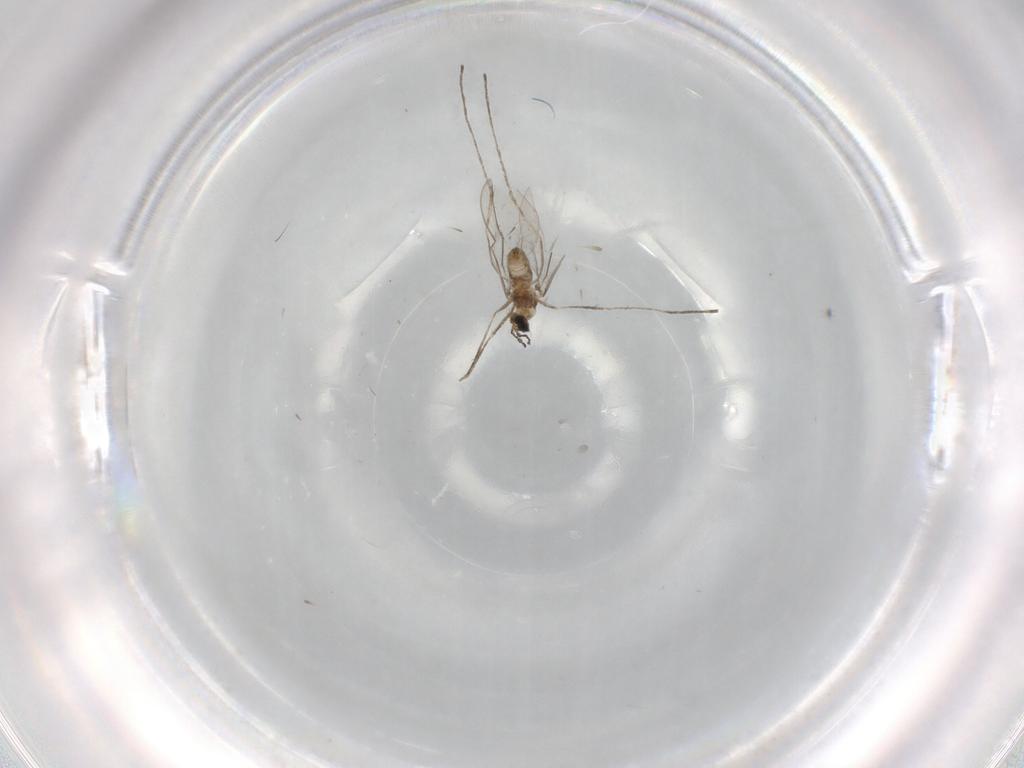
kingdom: Animalia
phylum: Arthropoda
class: Insecta
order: Diptera
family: Cecidomyiidae
